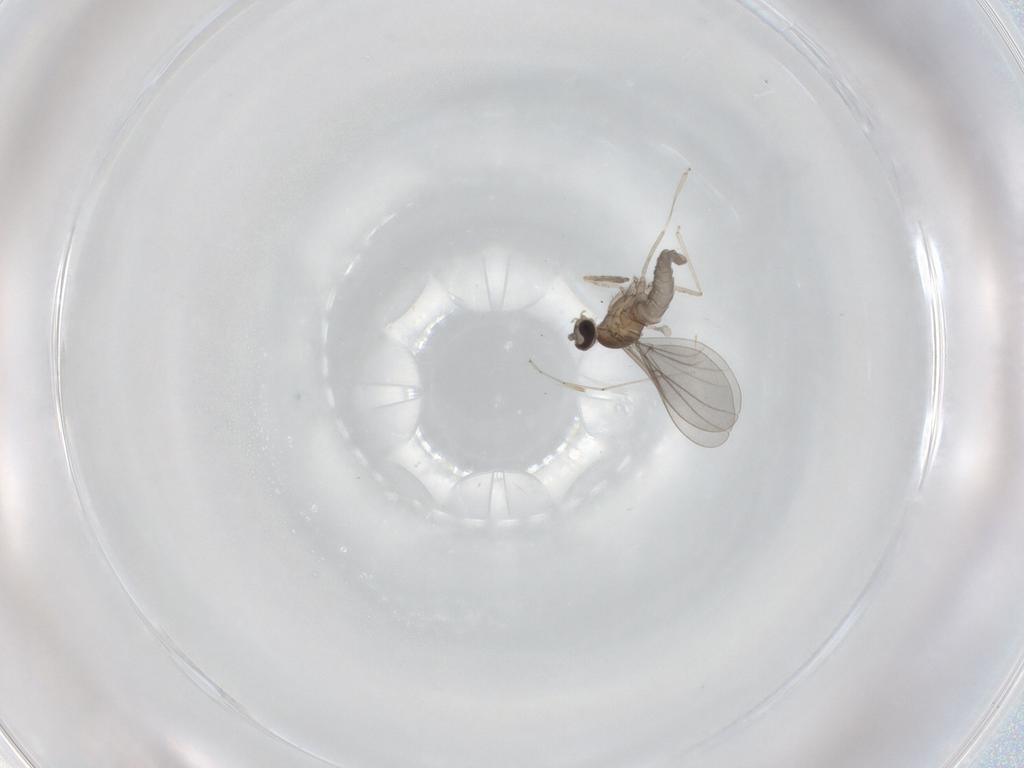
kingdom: Animalia
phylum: Arthropoda
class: Insecta
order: Diptera
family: Cecidomyiidae
